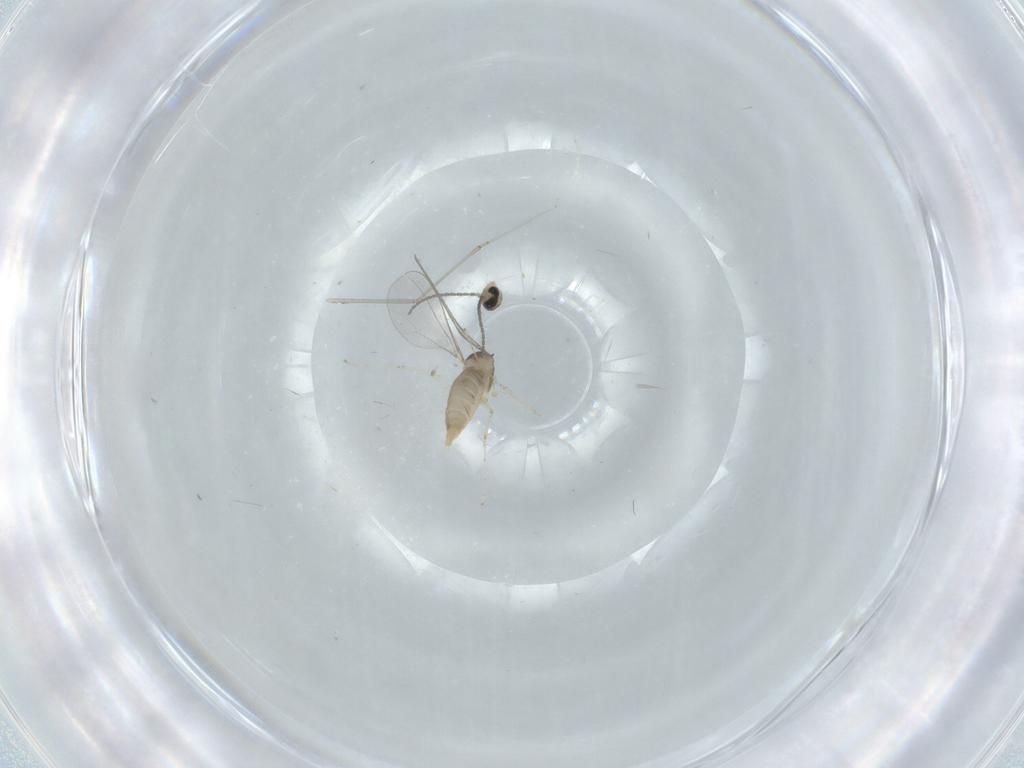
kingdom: Animalia
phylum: Arthropoda
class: Insecta
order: Diptera
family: Cecidomyiidae
